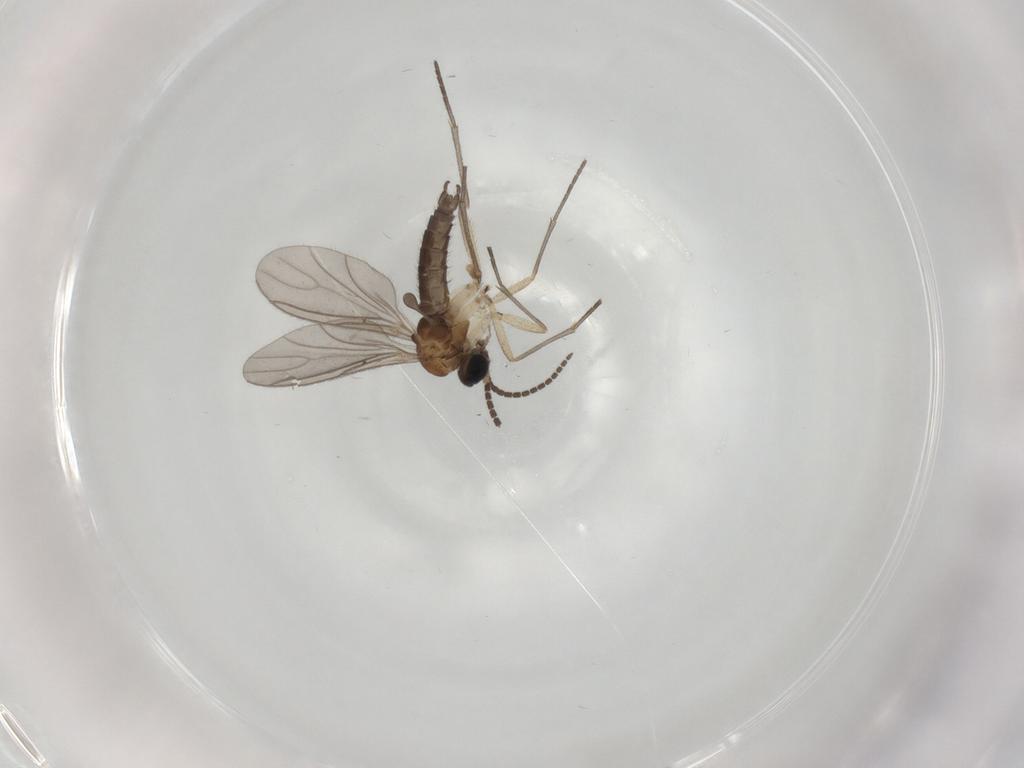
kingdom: Animalia
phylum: Arthropoda
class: Insecta
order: Diptera
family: Sciaridae
